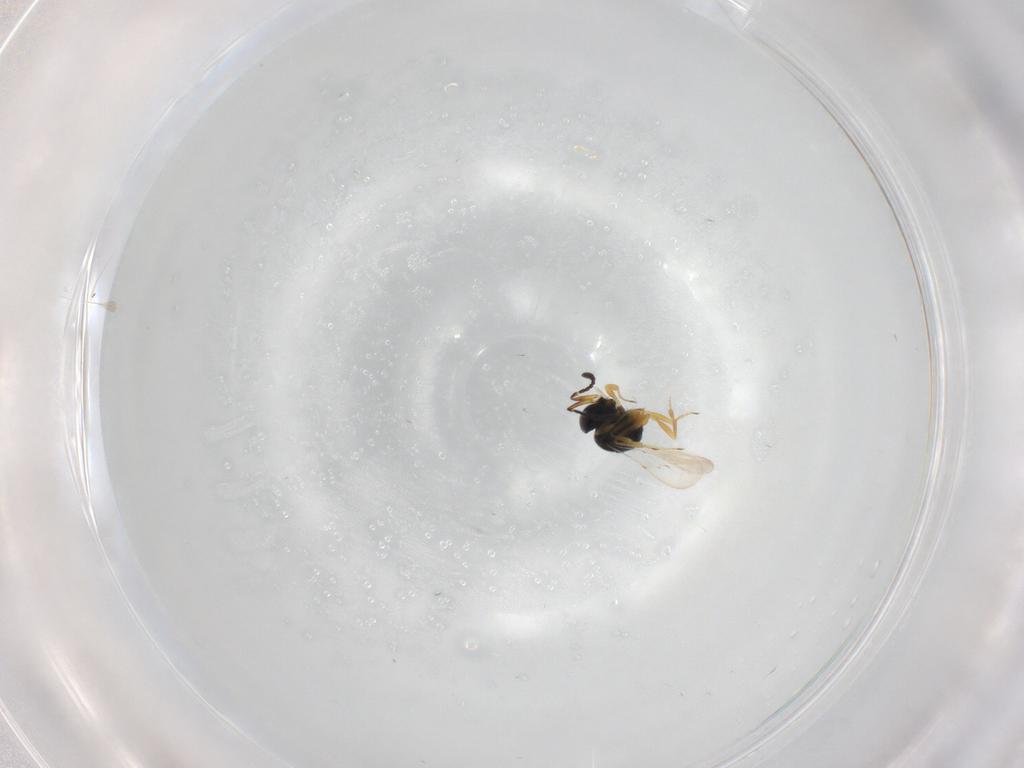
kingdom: Animalia
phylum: Arthropoda
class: Insecta
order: Hymenoptera
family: Scelionidae
